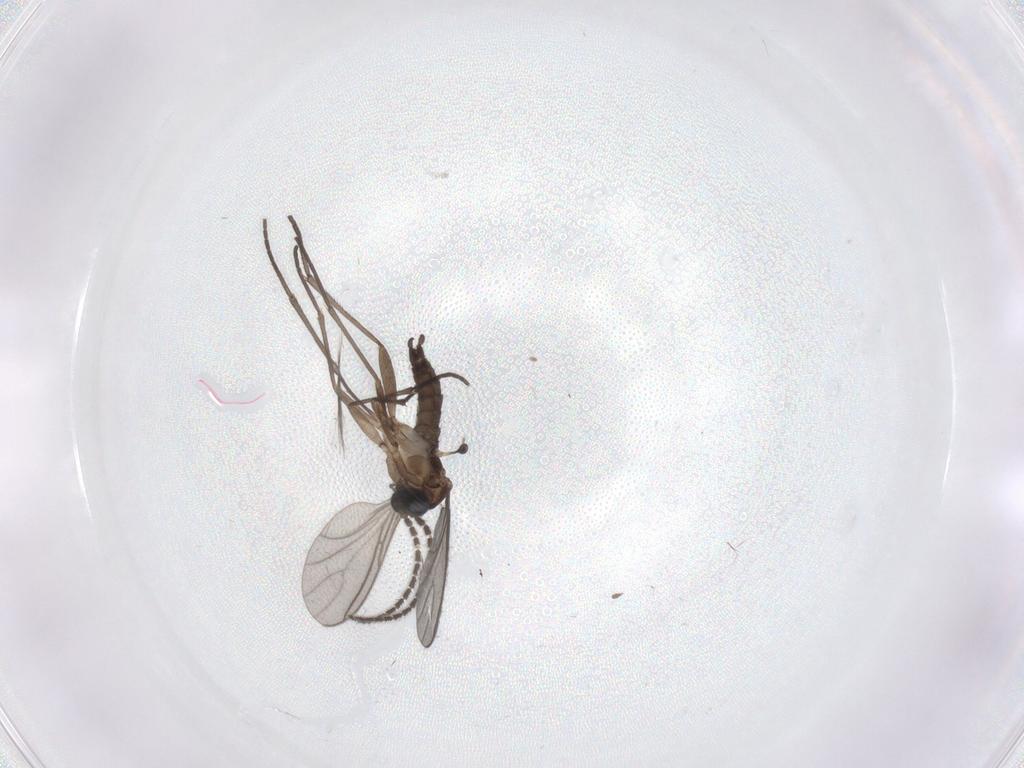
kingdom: Animalia
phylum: Arthropoda
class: Insecta
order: Diptera
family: Sciaridae
